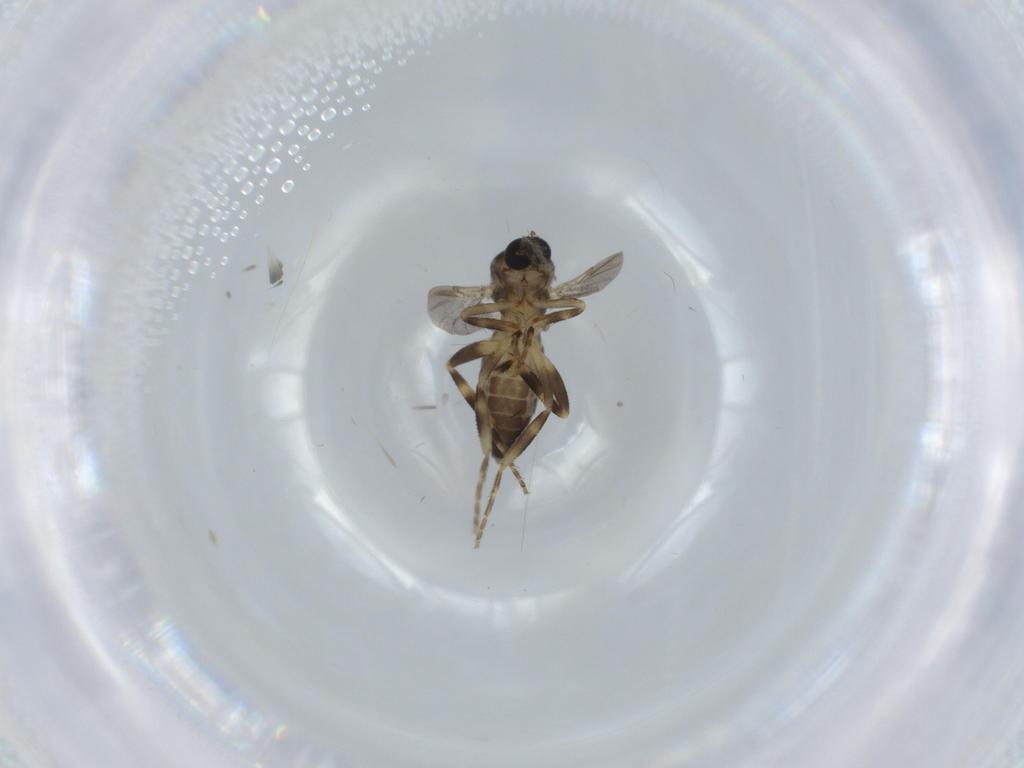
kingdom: Animalia
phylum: Arthropoda
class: Insecta
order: Diptera
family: Ceratopogonidae
